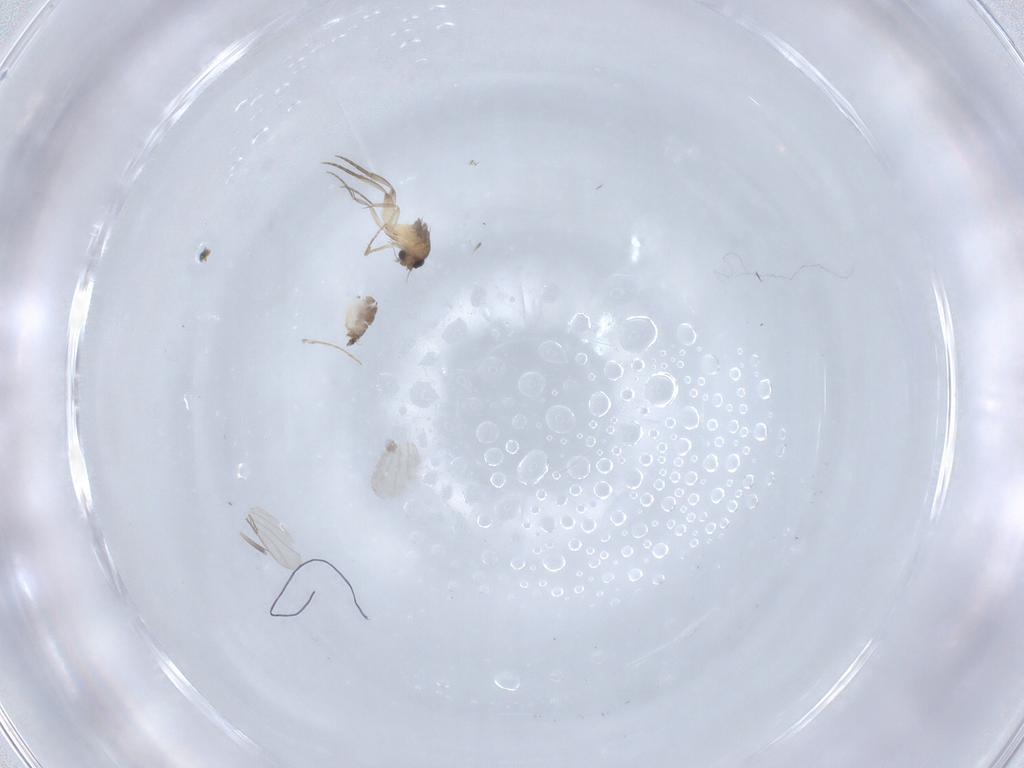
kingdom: Animalia
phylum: Arthropoda
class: Insecta
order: Diptera
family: Phoridae
